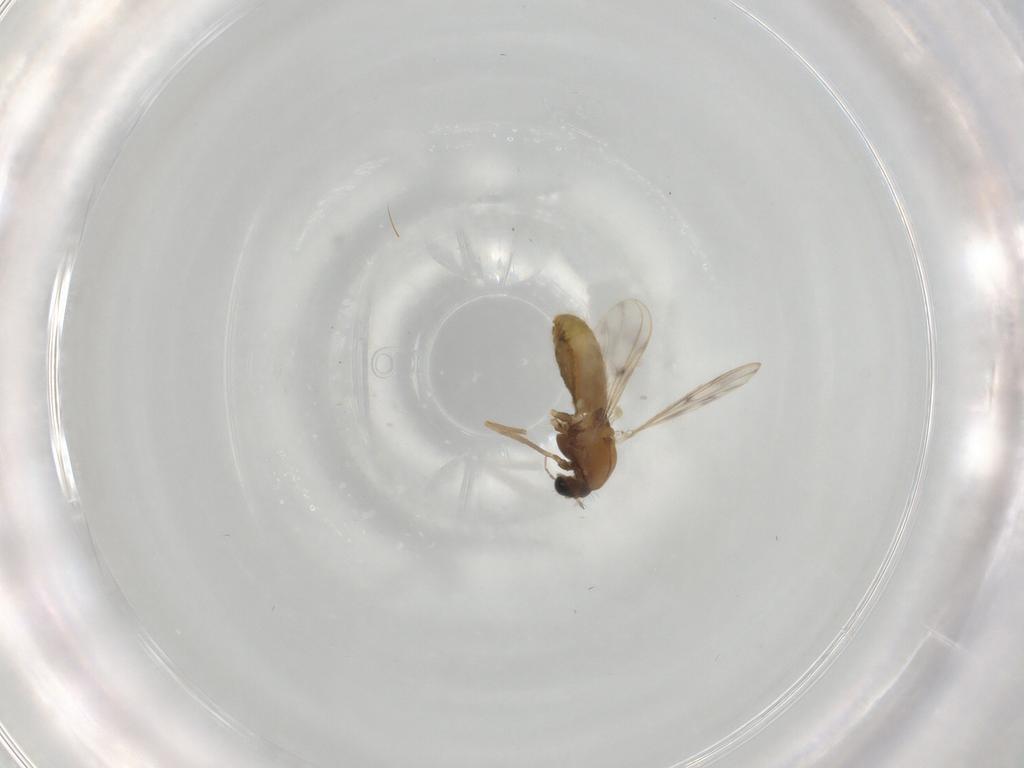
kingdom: Animalia
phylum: Arthropoda
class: Insecta
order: Diptera
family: Chironomidae
